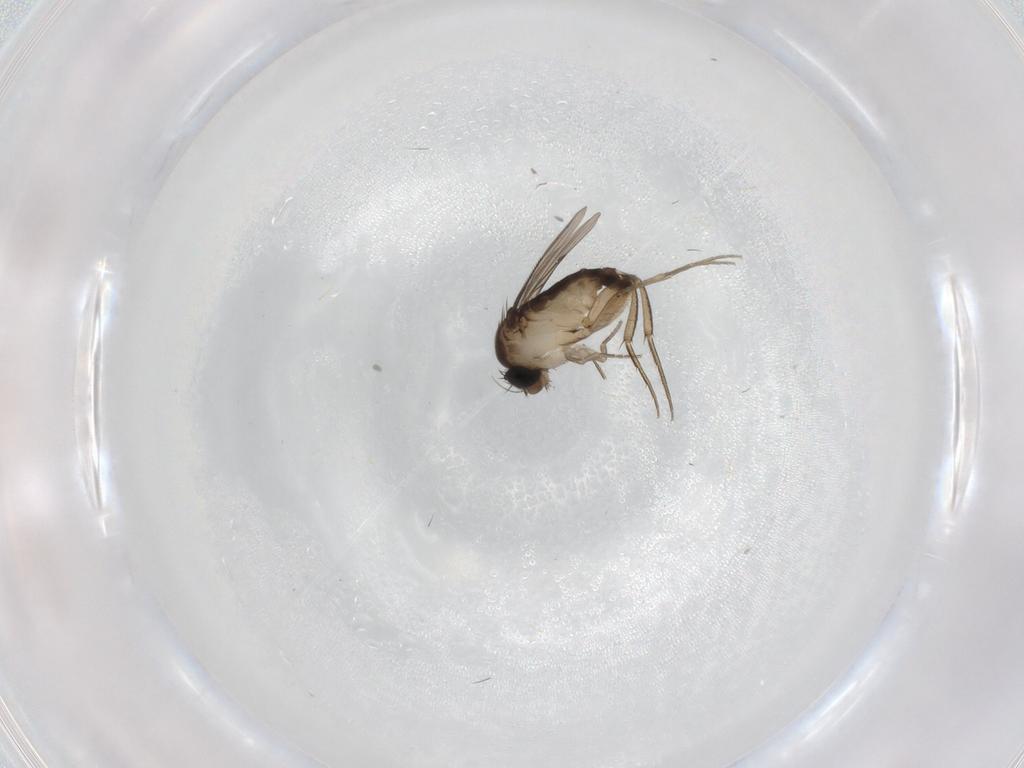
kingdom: Animalia
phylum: Arthropoda
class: Insecta
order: Diptera
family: Phoridae
